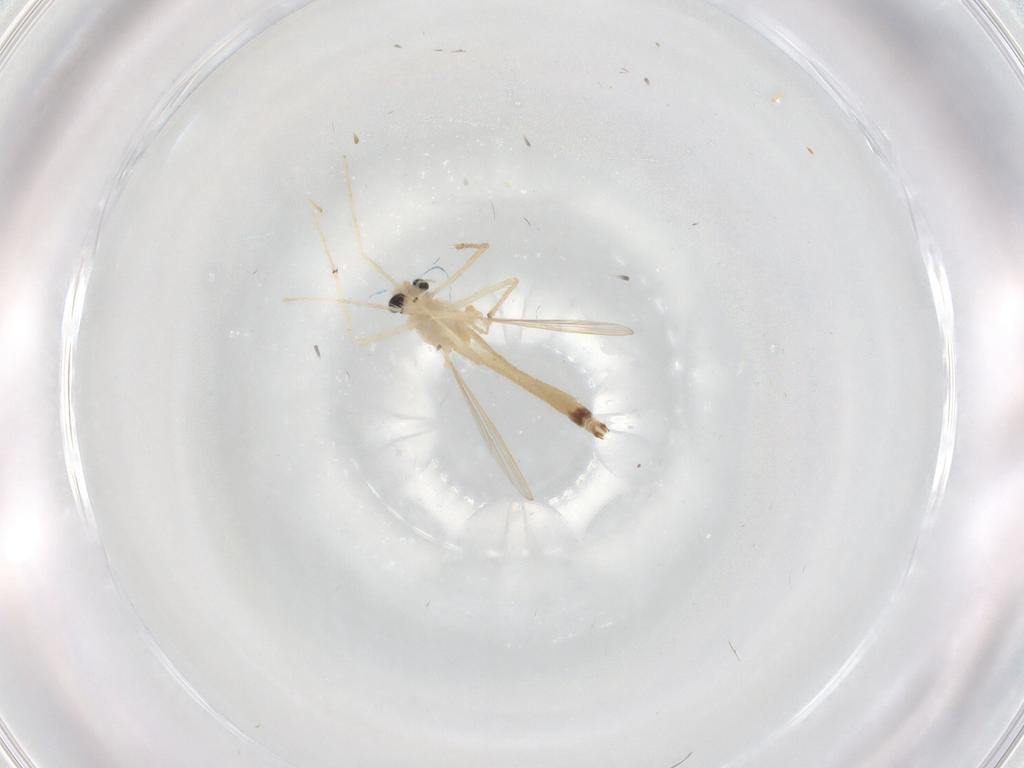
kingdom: Animalia
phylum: Arthropoda
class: Insecta
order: Diptera
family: Chironomidae
